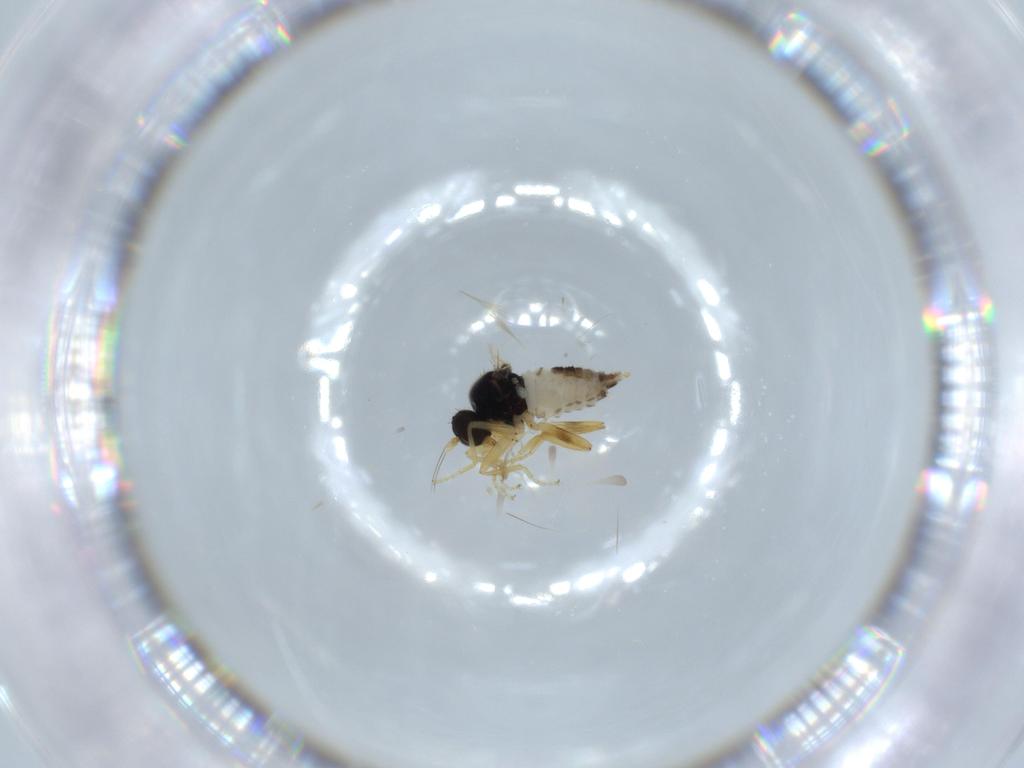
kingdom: Animalia
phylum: Arthropoda
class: Insecta
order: Diptera
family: Hybotidae
